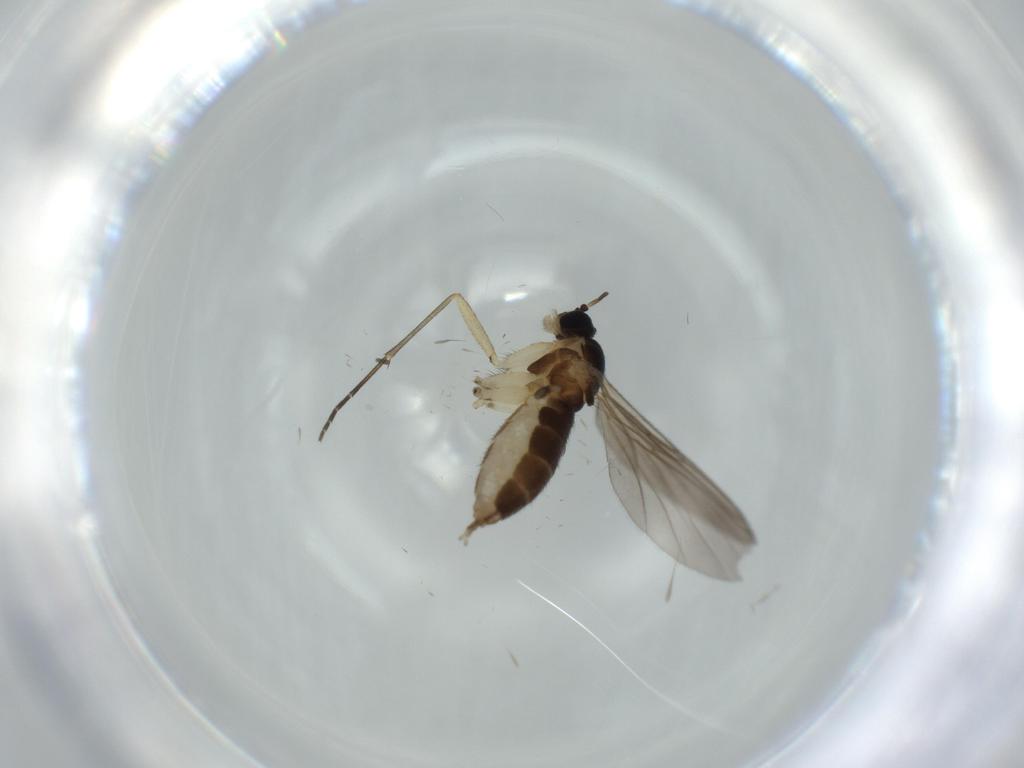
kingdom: Animalia
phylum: Arthropoda
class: Insecta
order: Diptera
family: Sciaridae
